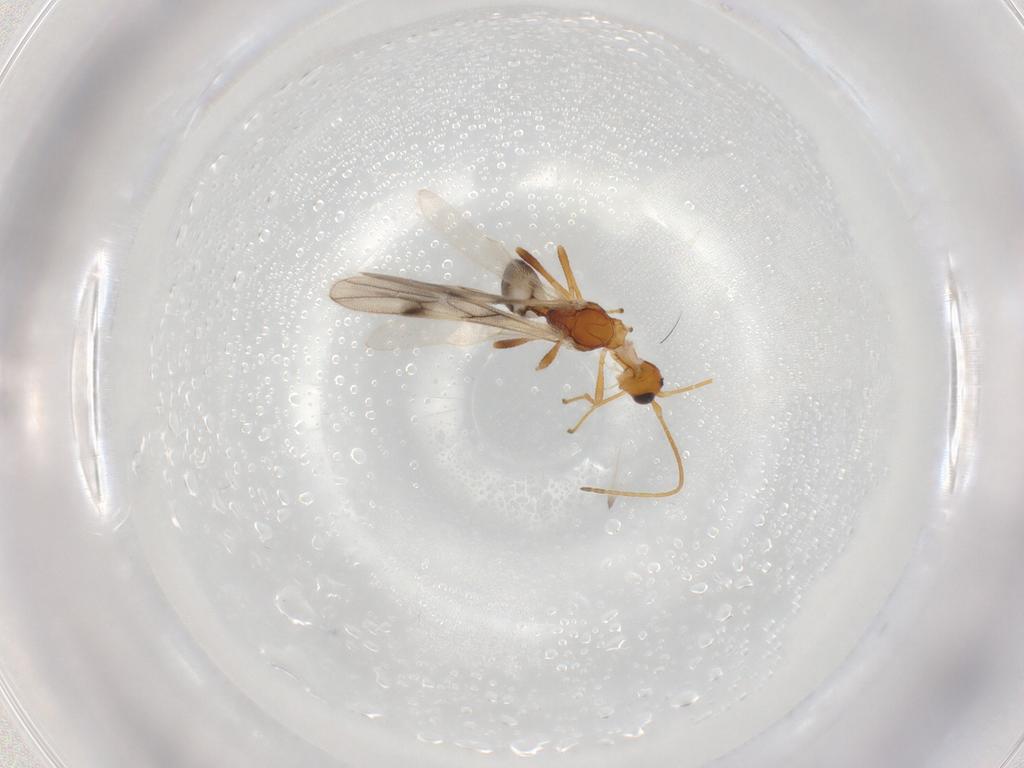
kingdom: Animalia
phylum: Arthropoda
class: Insecta
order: Hymenoptera
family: Braconidae
